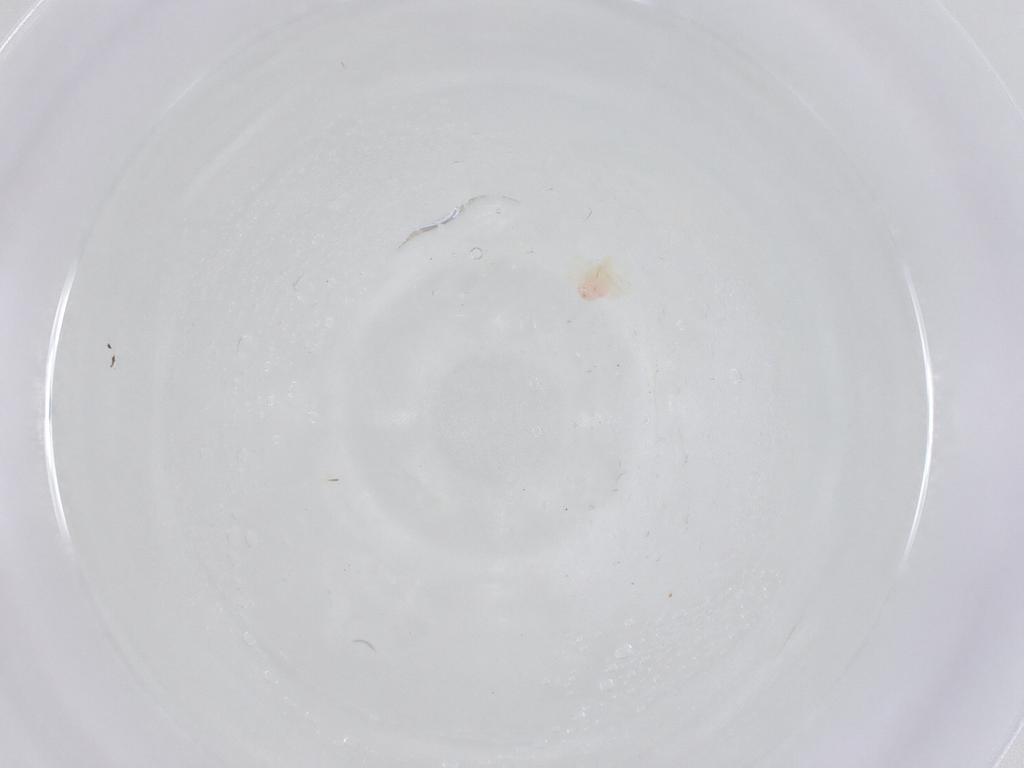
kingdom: Animalia
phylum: Arthropoda
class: Arachnida
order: Trombidiformes
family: Anystidae
